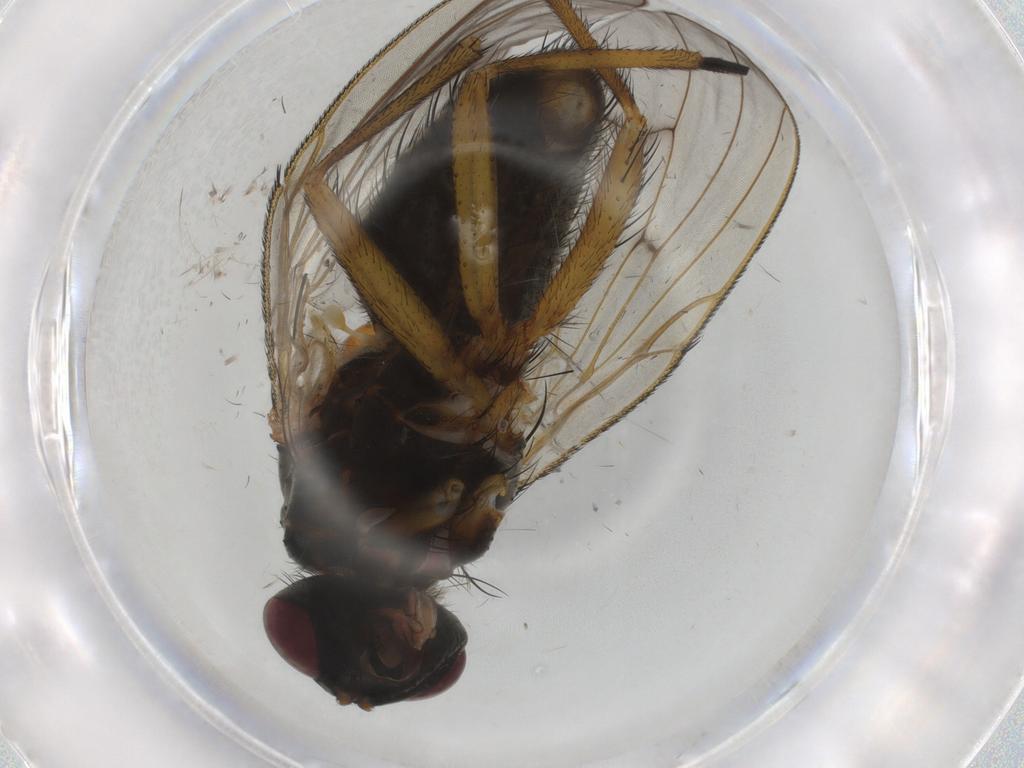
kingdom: Animalia
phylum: Arthropoda
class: Insecta
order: Diptera
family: Muscidae
